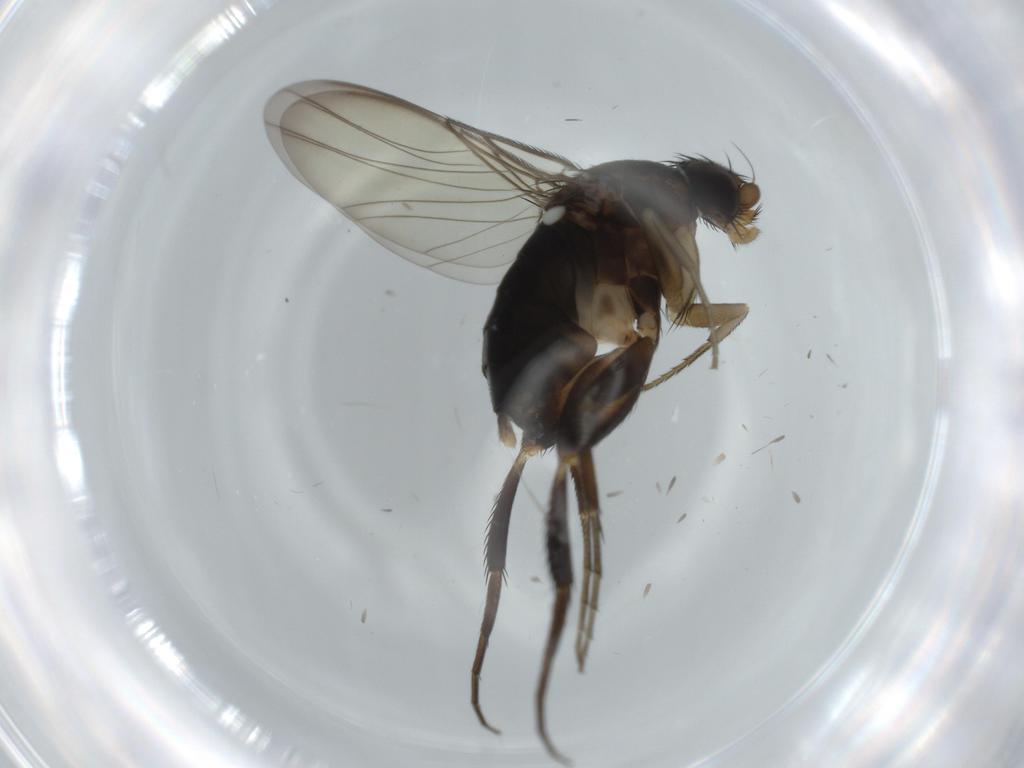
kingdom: Animalia
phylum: Arthropoda
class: Insecta
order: Diptera
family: Phoridae
